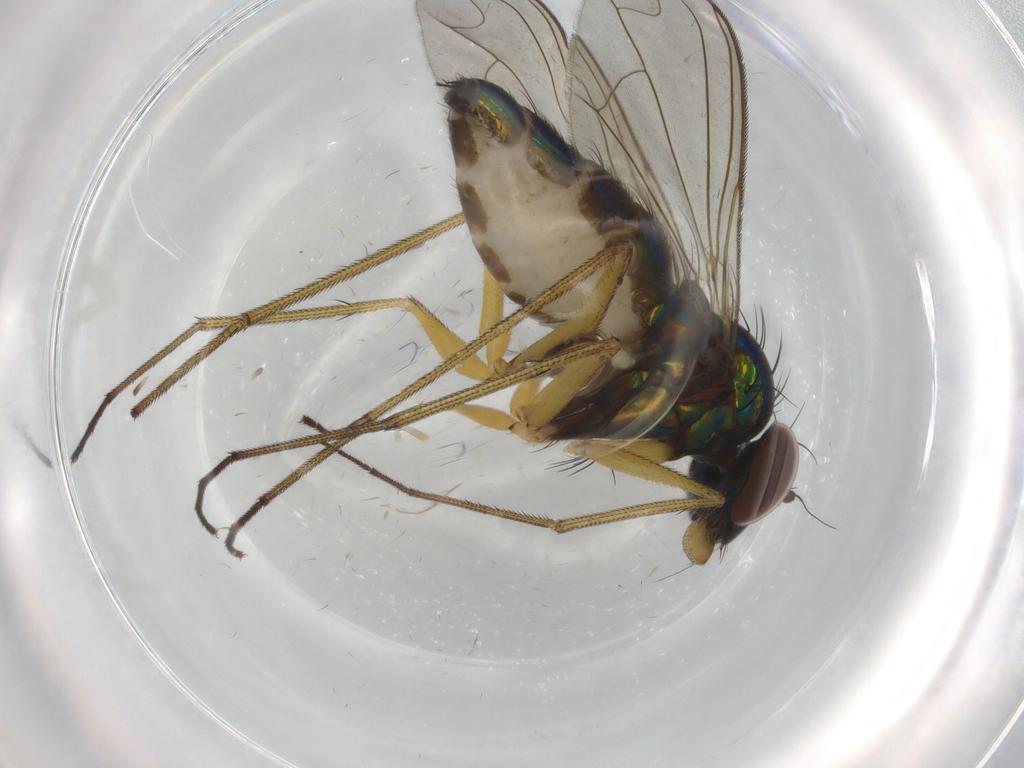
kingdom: Animalia
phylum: Arthropoda
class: Insecta
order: Diptera
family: Dolichopodidae
